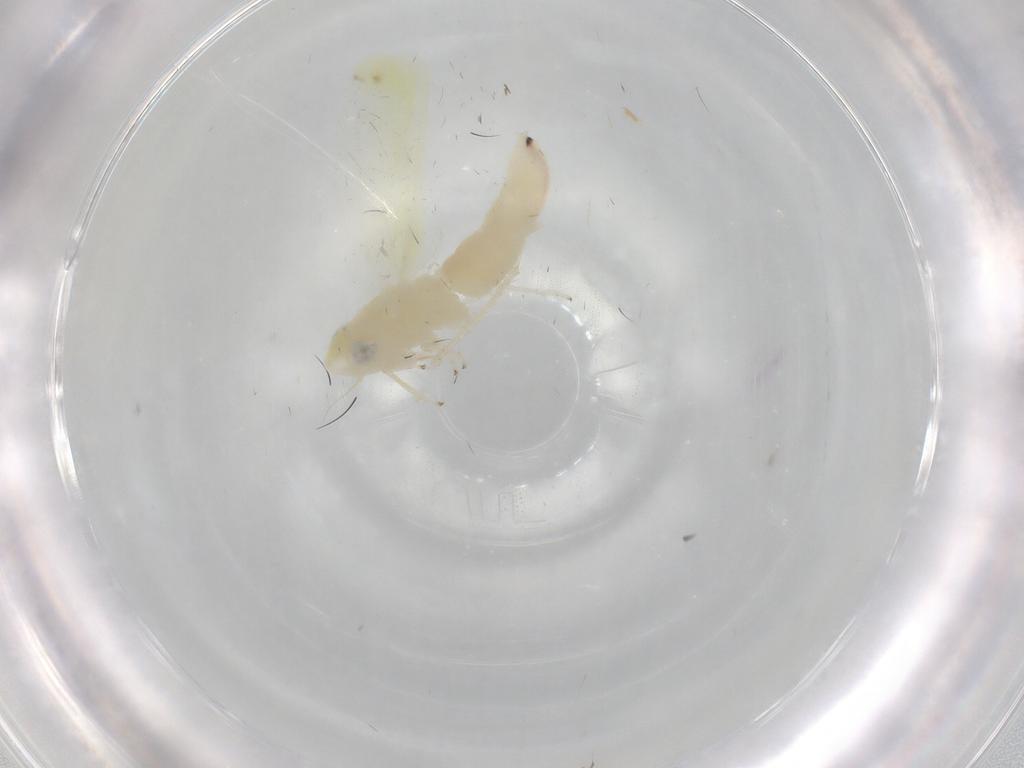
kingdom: Animalia
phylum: Arthropoda
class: Insecta
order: Hemiptera
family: Cicadellidae
